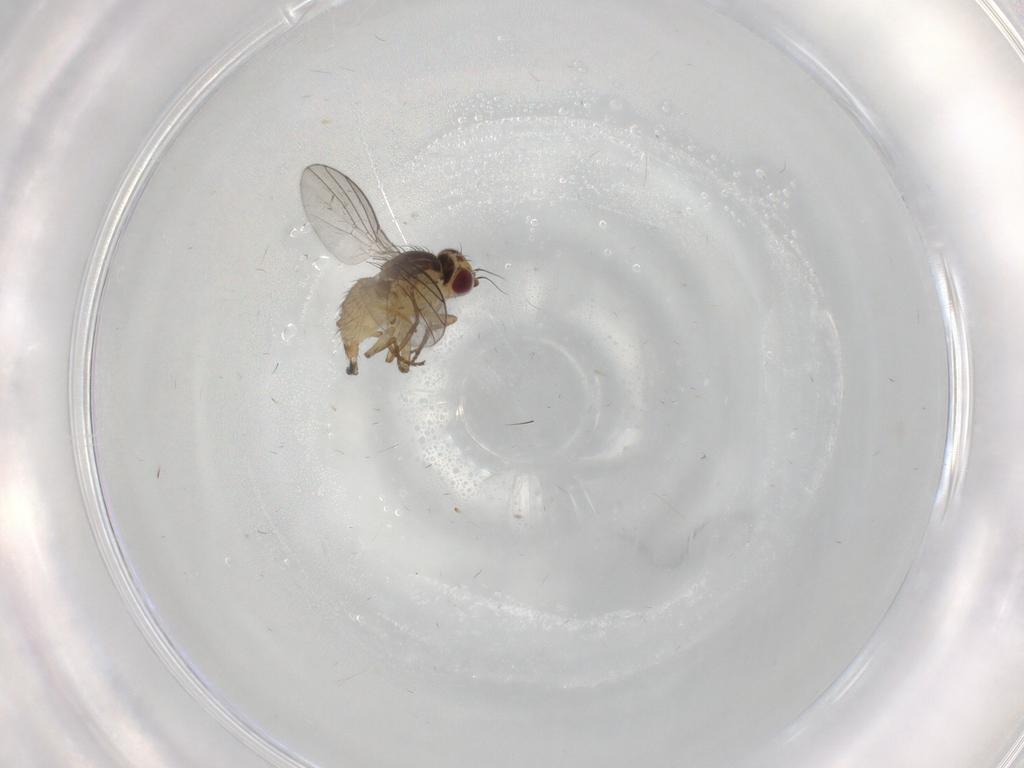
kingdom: Animalia
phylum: Arthropoda
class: Insecta
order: Diptera
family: Agromyzidae
